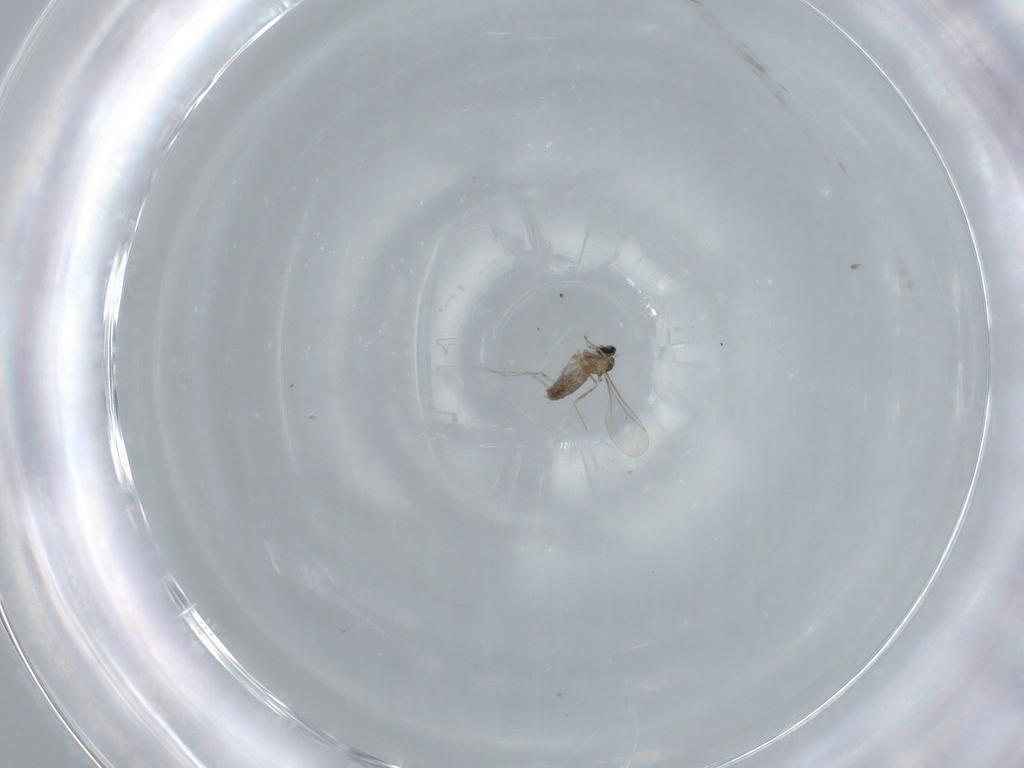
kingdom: Animalia
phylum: Arthropoda
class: Insecta
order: Diptera
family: Cecidomyiidae
